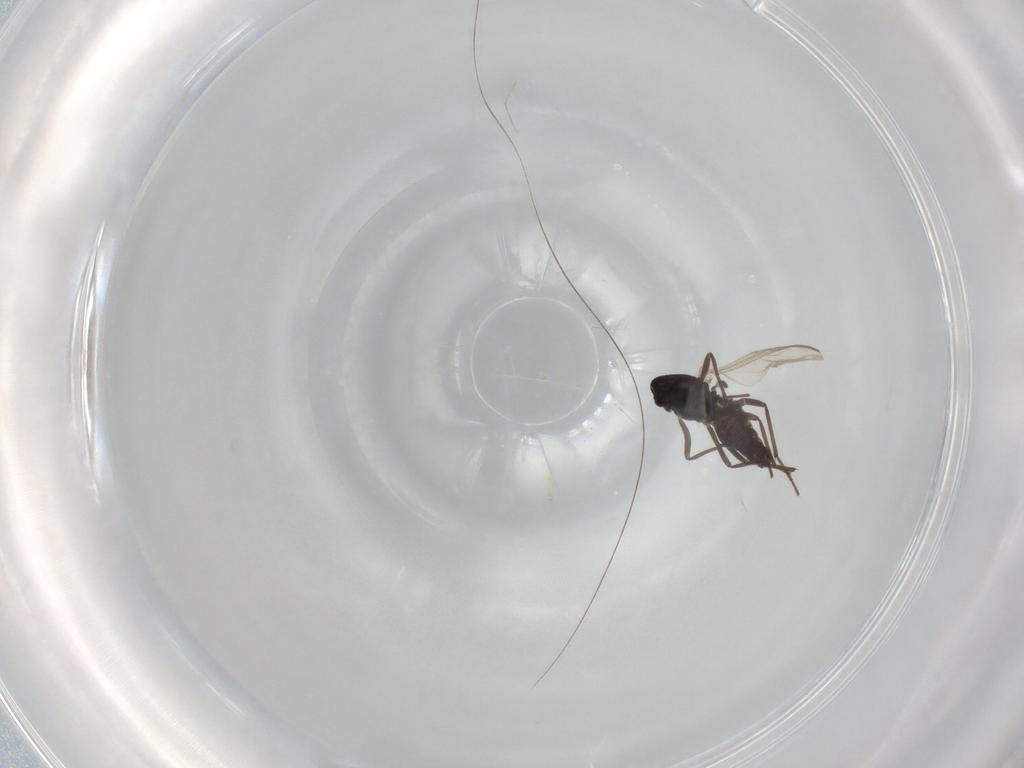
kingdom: Animalia
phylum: Arthropoda
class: Insecta
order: Diptera
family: Chironomidae
